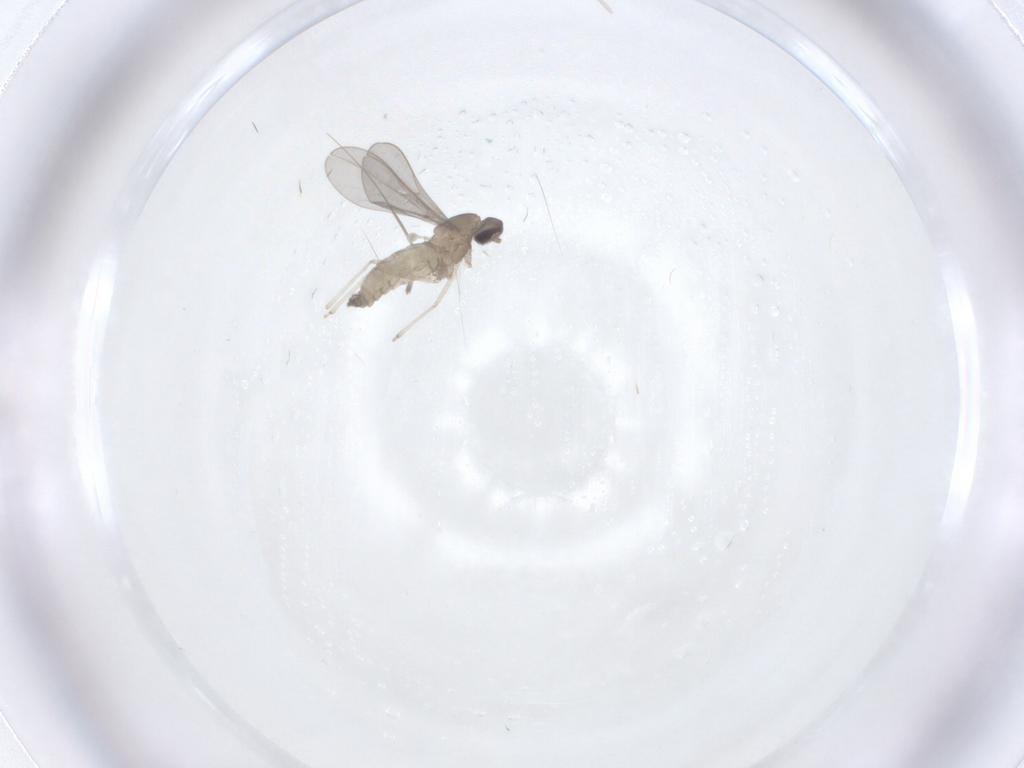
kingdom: Animalia
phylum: Arthropoda
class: Insecta
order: Diptera
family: Cecidomyiidae
